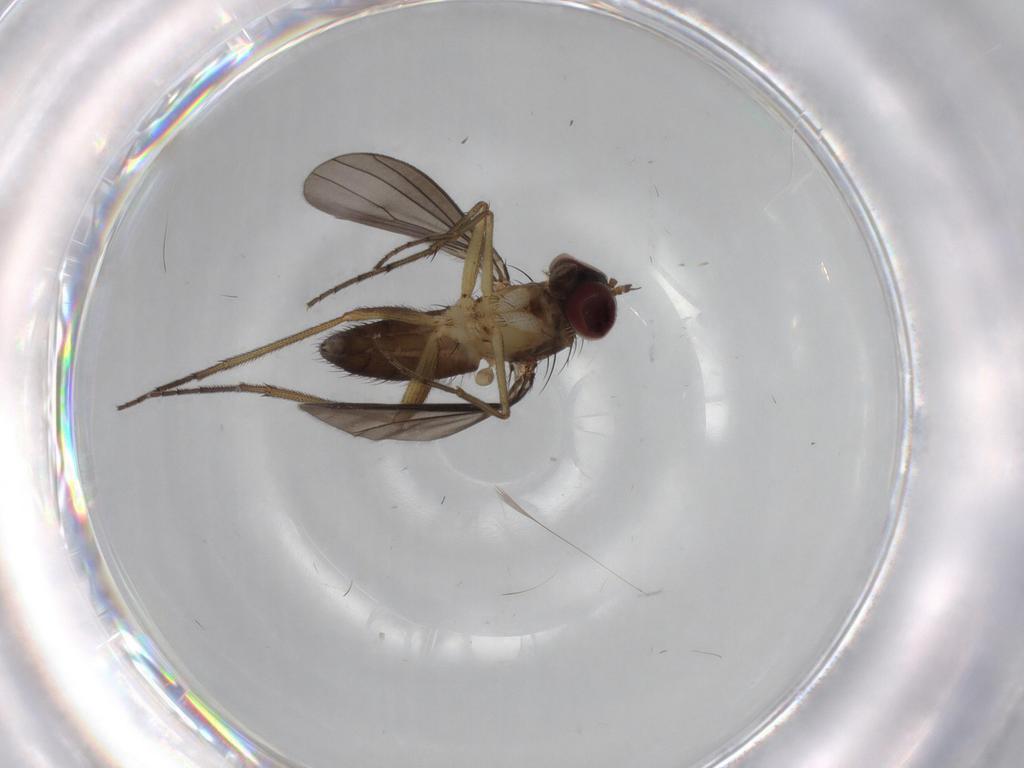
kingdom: Animalia
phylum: Arthropoda
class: Insecta
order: Diptera
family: Dolichopodidae
